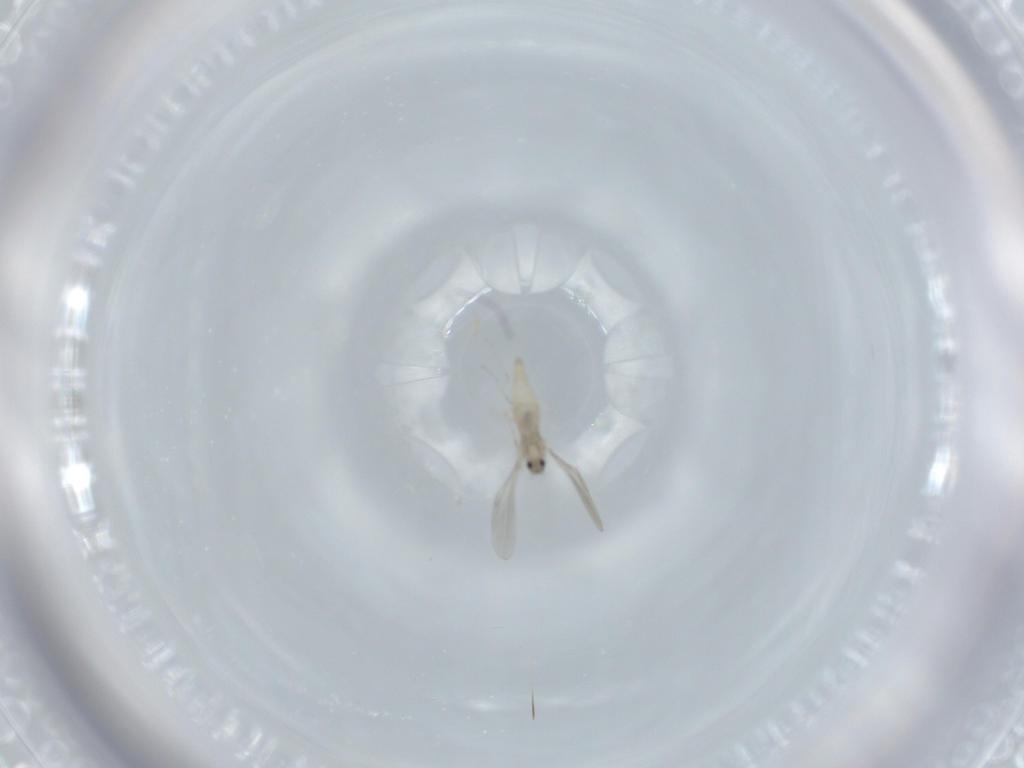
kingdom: Animalia
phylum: Arthropoda
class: Insecta
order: Diptera
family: Cecidomyiidae
